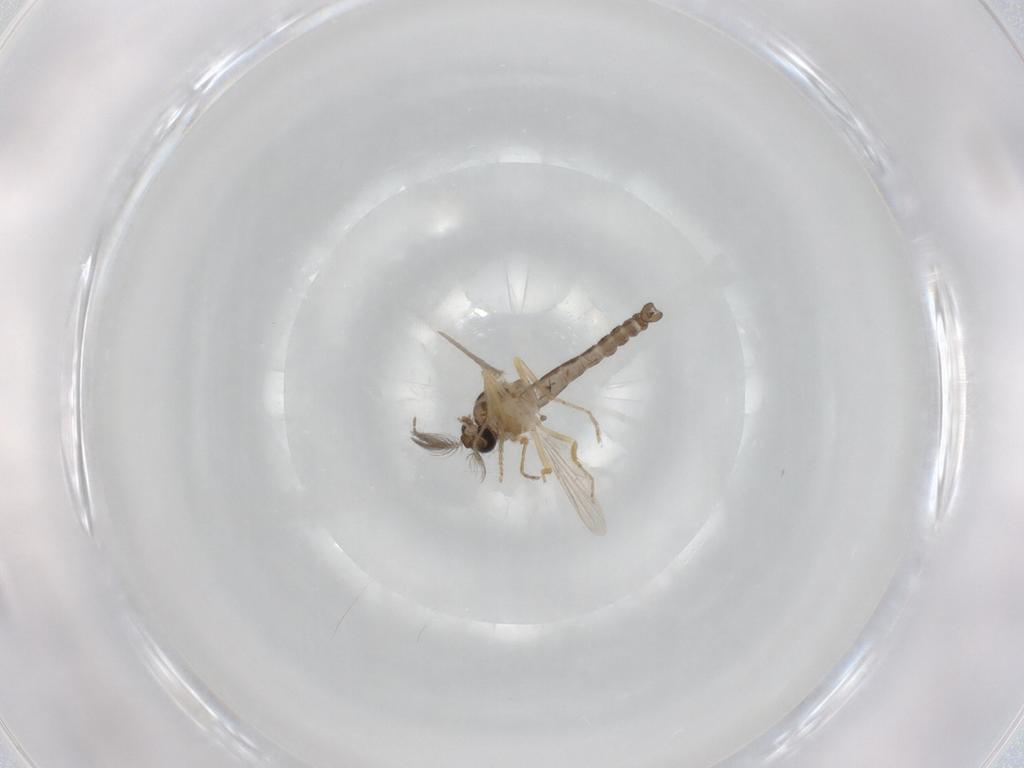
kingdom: Animalia
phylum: Arthropoda
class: Insecta
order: Diptera
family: Ceratopogonidae
